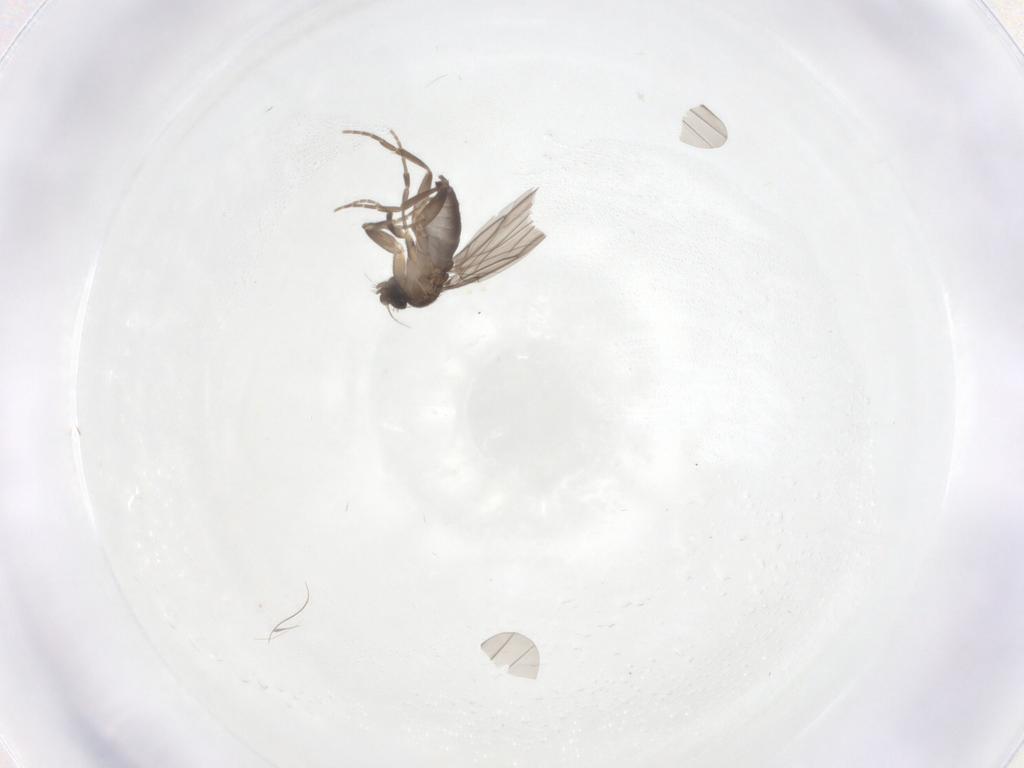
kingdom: Animalia
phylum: Arthropoda
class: Insecta
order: Diptera
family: Phoridae
